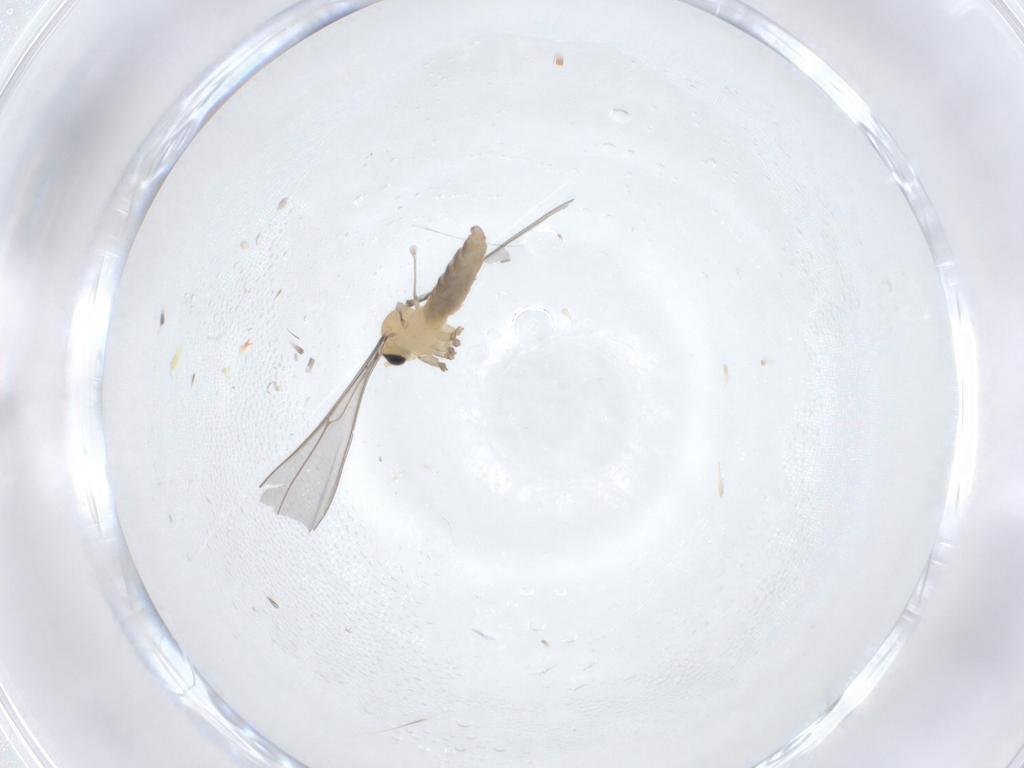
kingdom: Animalia
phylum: Arthropoda
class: Insecta
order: Diptera
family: Cecidomyiidae
